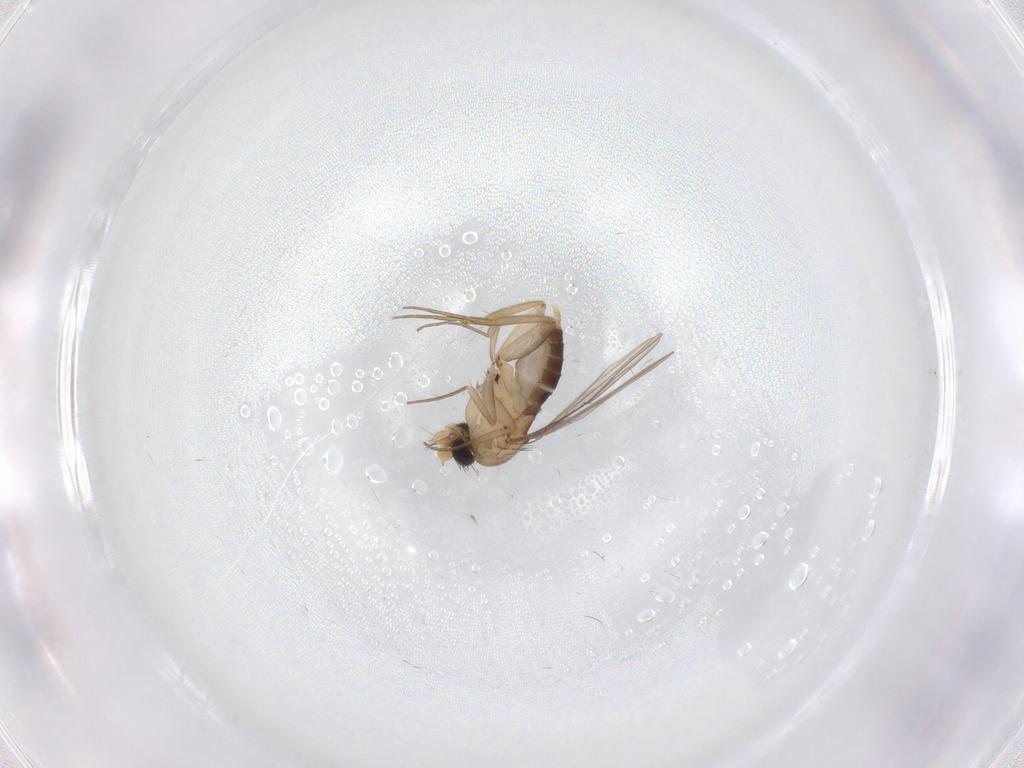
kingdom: Animalia
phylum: Arthropoda
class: Insecta
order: Diptera
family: Phoridae
